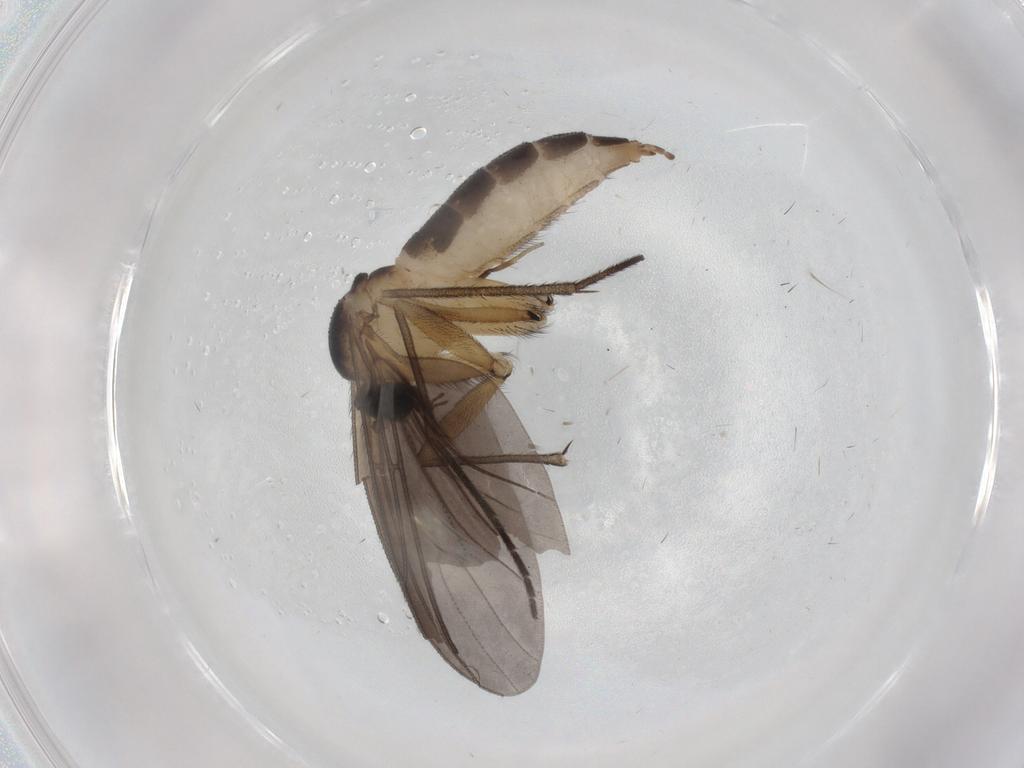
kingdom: Animalia
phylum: Arthropoda
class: Insecta
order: Diptera
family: Sciaridae
